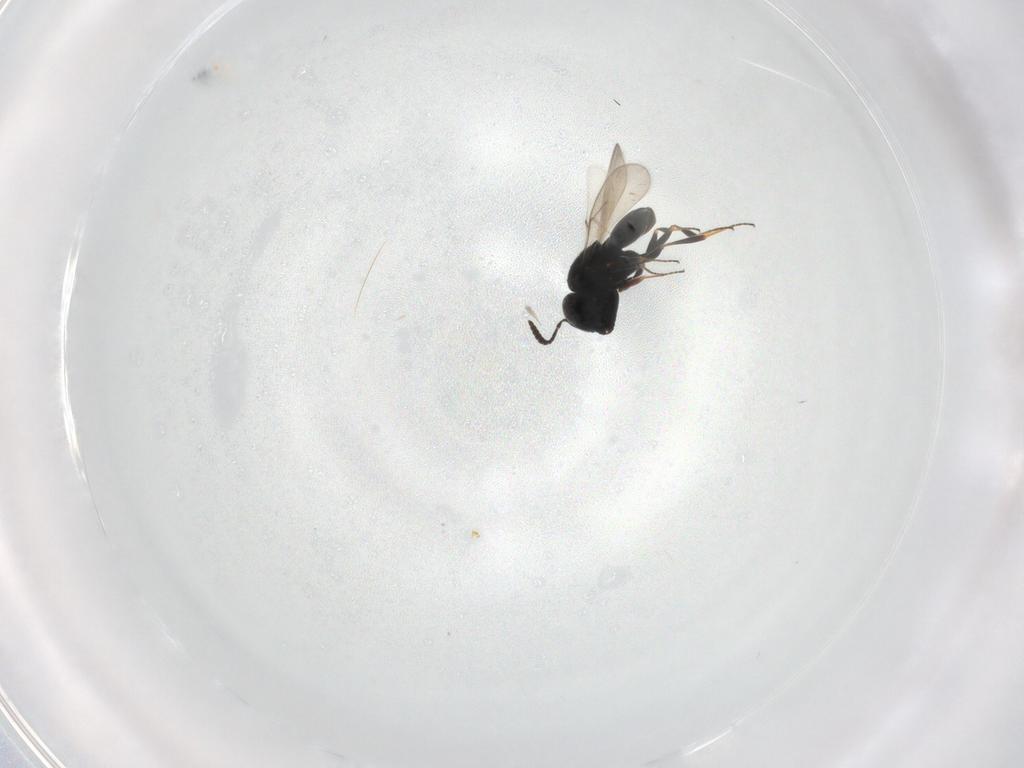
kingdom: Animalia
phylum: Arthropoda
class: Insecta
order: Hymenoptera
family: Scelionidae
